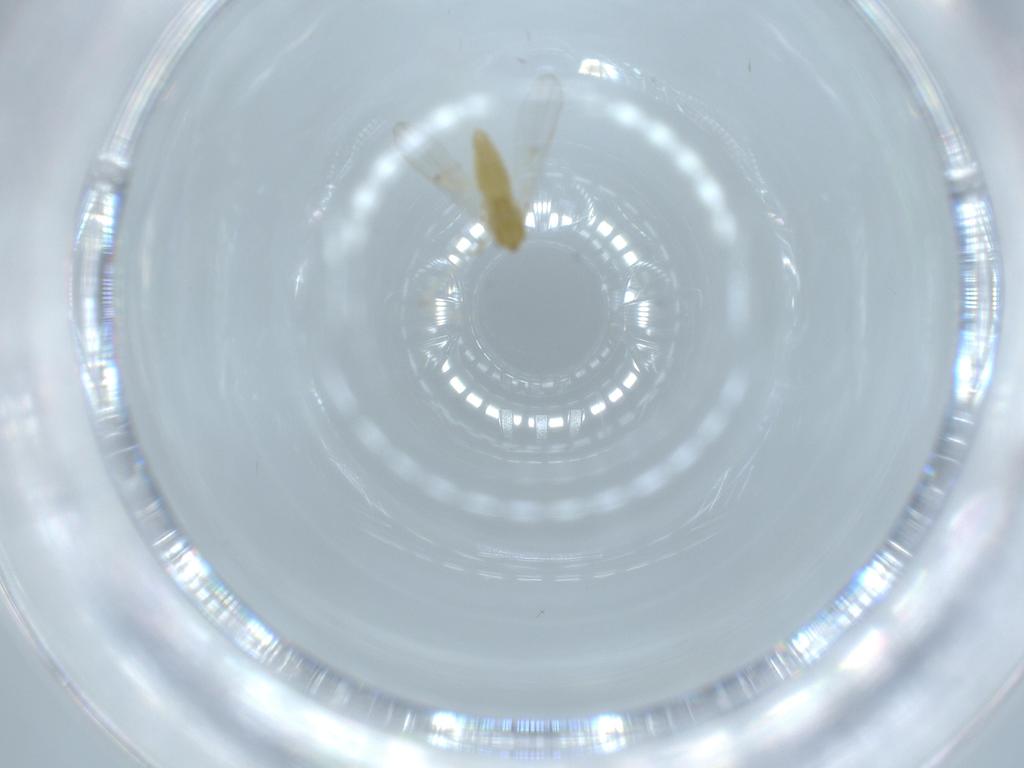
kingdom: Animalia
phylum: Arthropoda
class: Insecta
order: Diptera
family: Chironomidae
